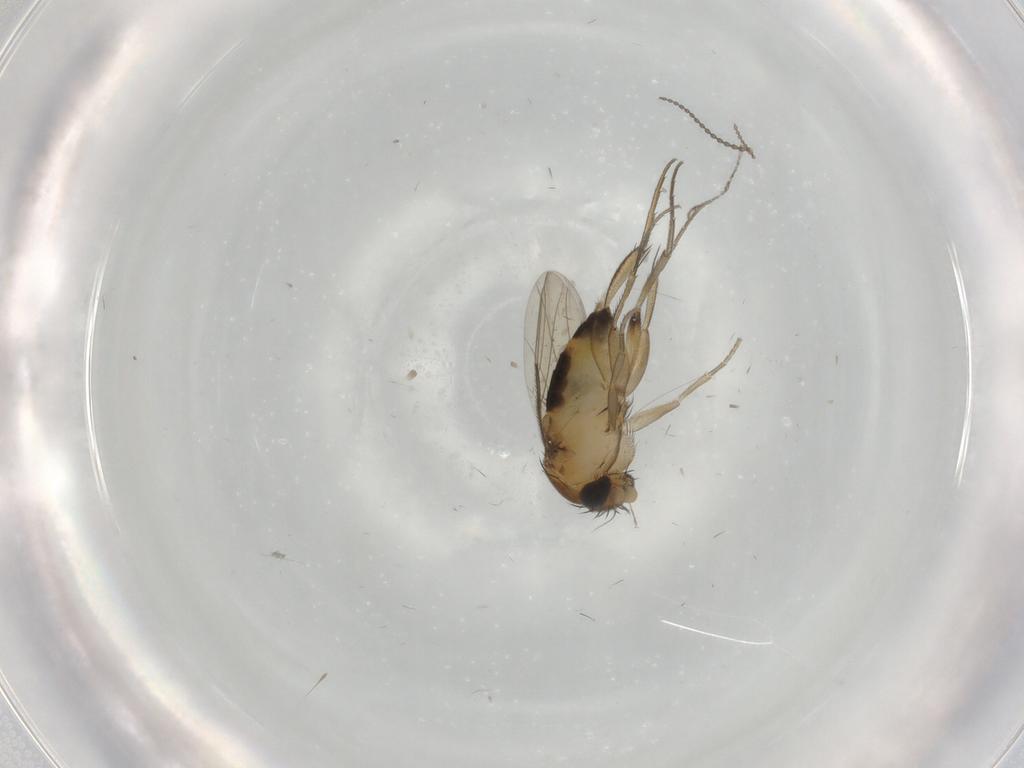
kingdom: Animalia
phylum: Arthropoda
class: Insecta
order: Diptera
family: Phoridae
